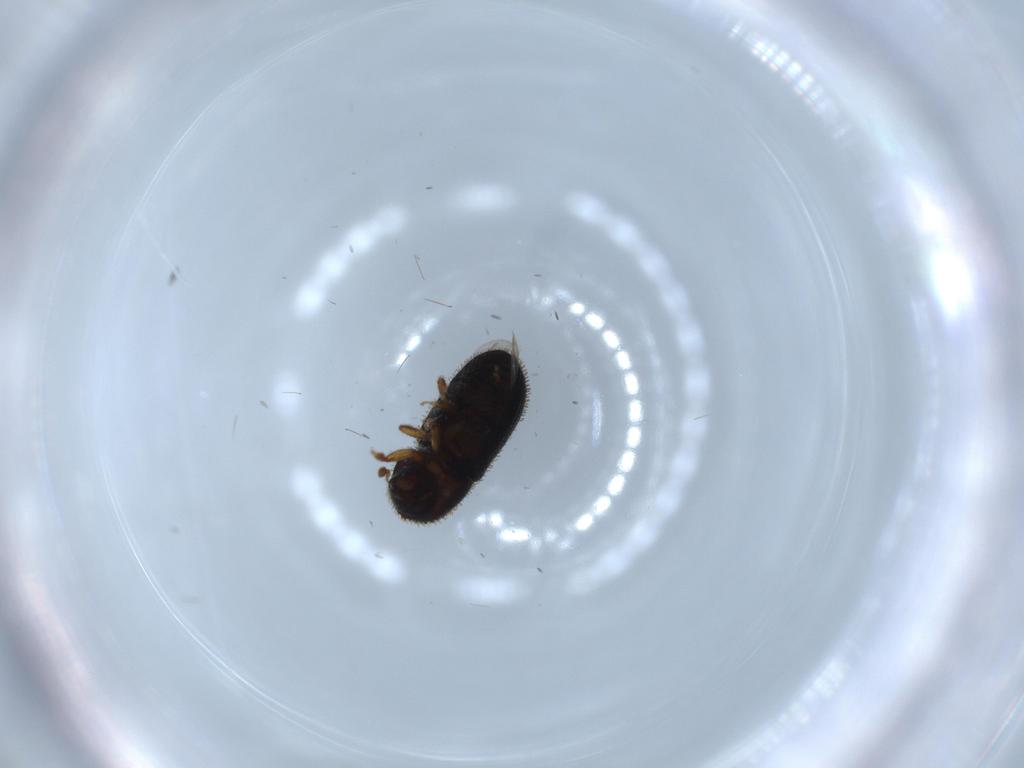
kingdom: Animalia
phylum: Arthropoda
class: Insecta
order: Coleoptera
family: Curculionidae
